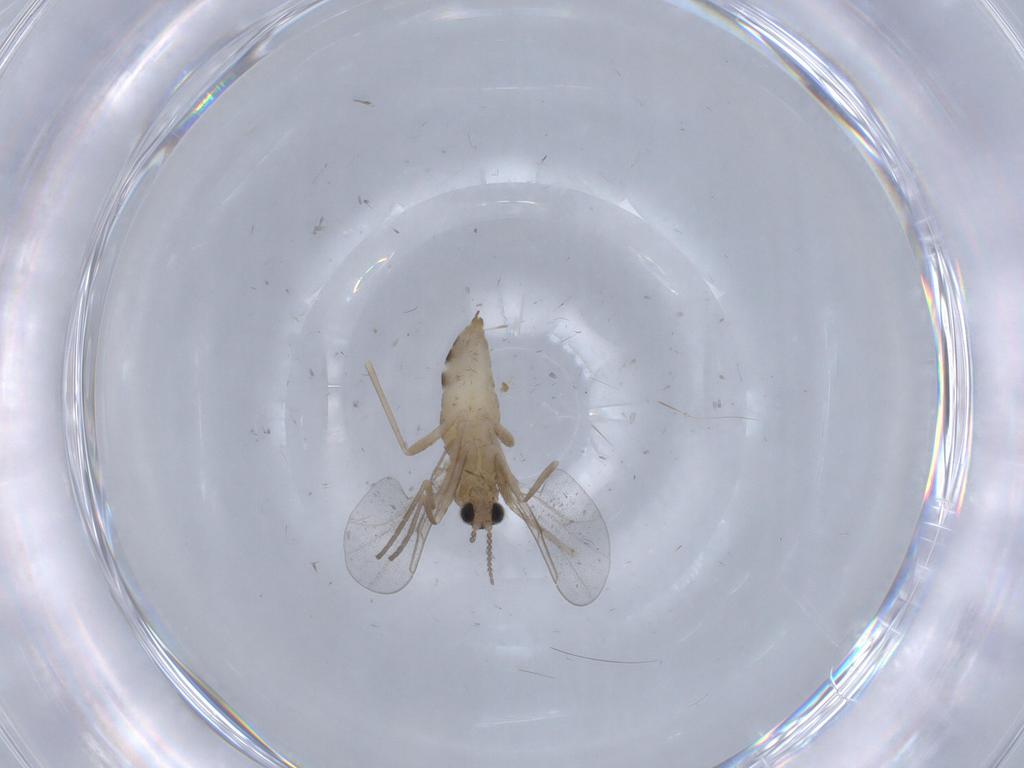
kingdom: Animalia
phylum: Arthropoda
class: Insecta
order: Diptera
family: Cecidomyiidae
